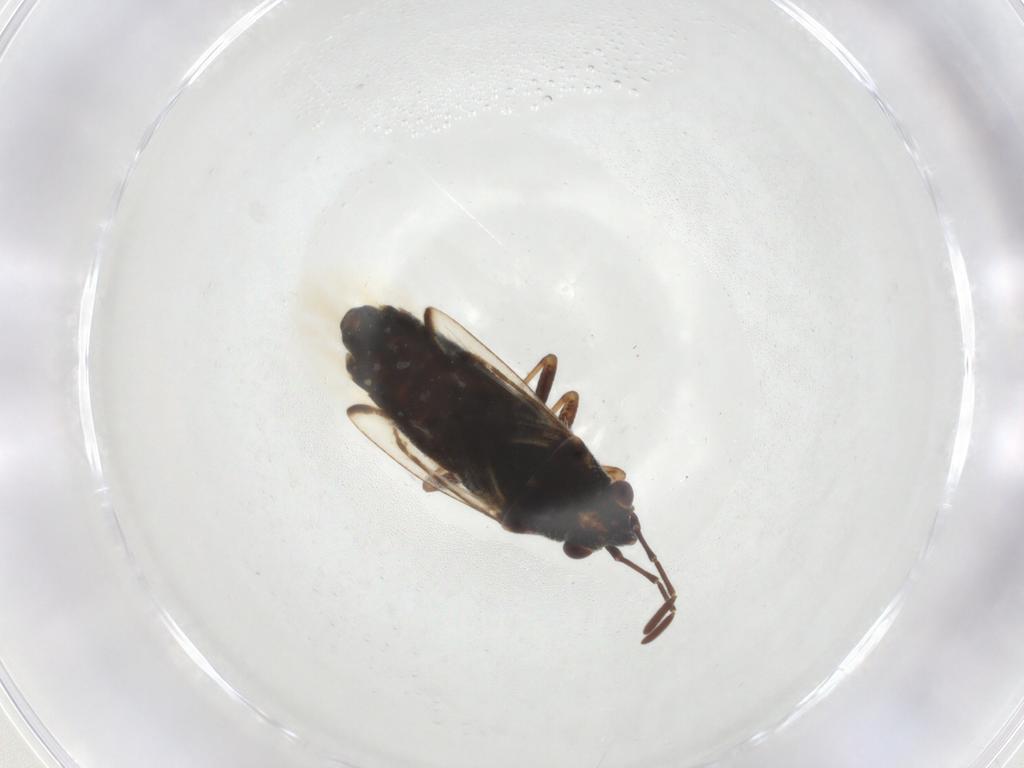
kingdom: Animalia
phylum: Arthropoda
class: Insecta
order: Hemiptera
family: Lygaeidae
